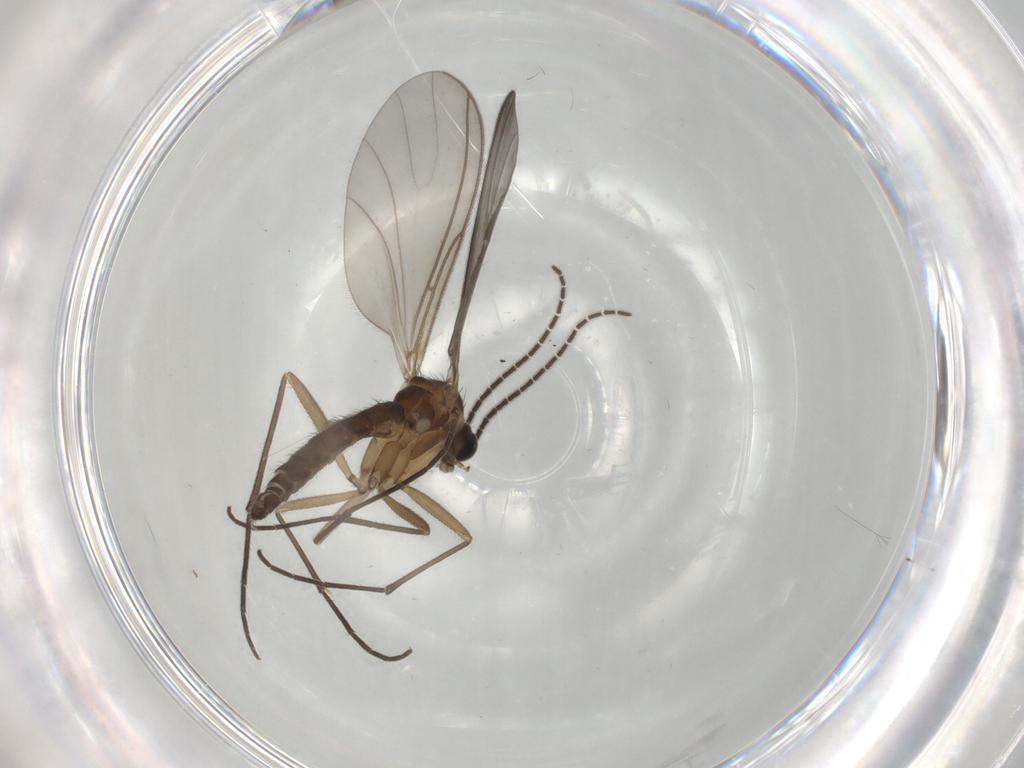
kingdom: Animalia
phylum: Arthropoda
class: Insecta
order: Diptera
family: Sciaridae
